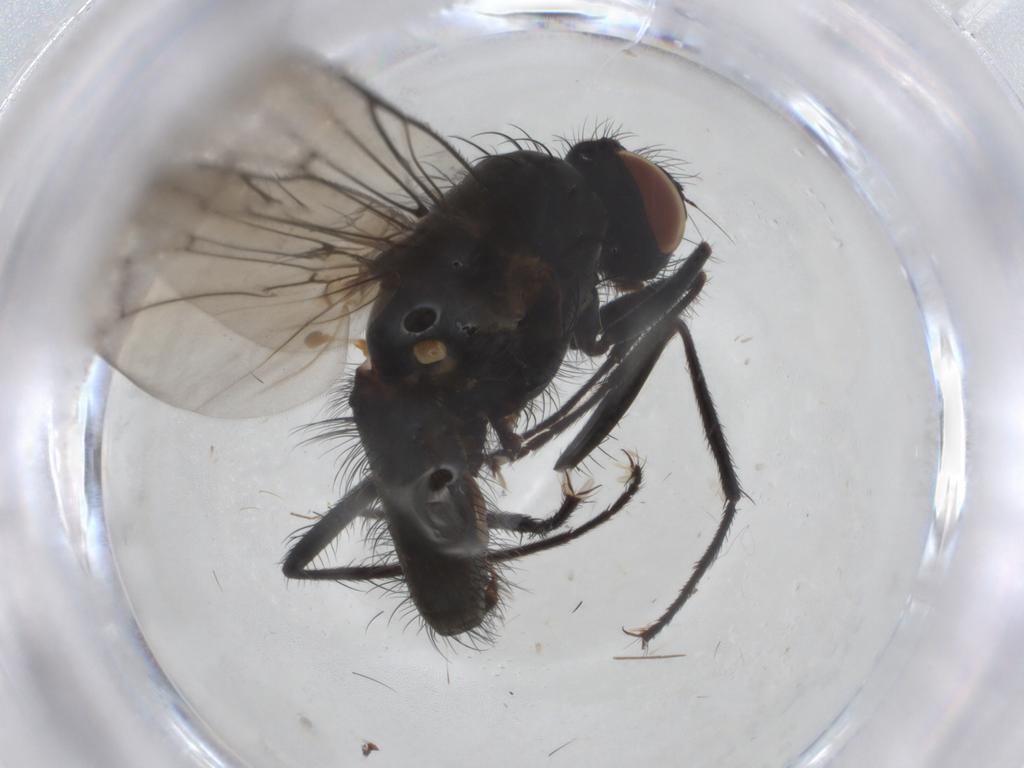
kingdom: Animalia
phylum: Arthropoda
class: Insecta
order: Diptera
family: Anthomyiidae
